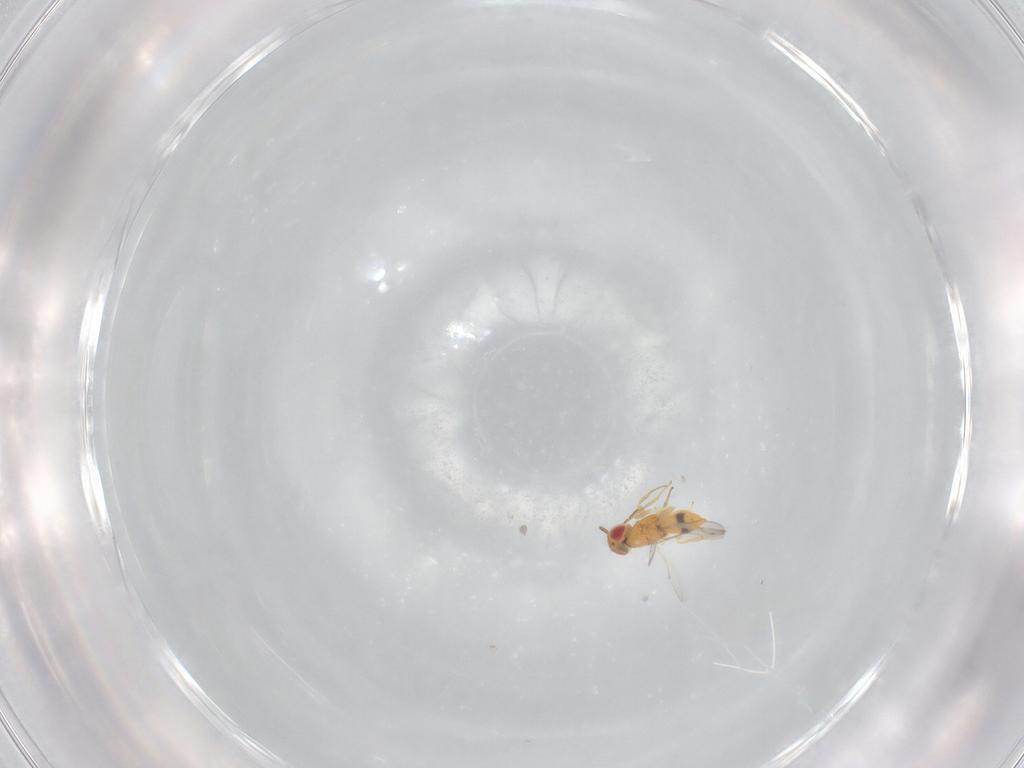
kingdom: Animalia
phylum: Arthropoda
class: Insecta
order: Hymenoptera
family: Aphelinidae
